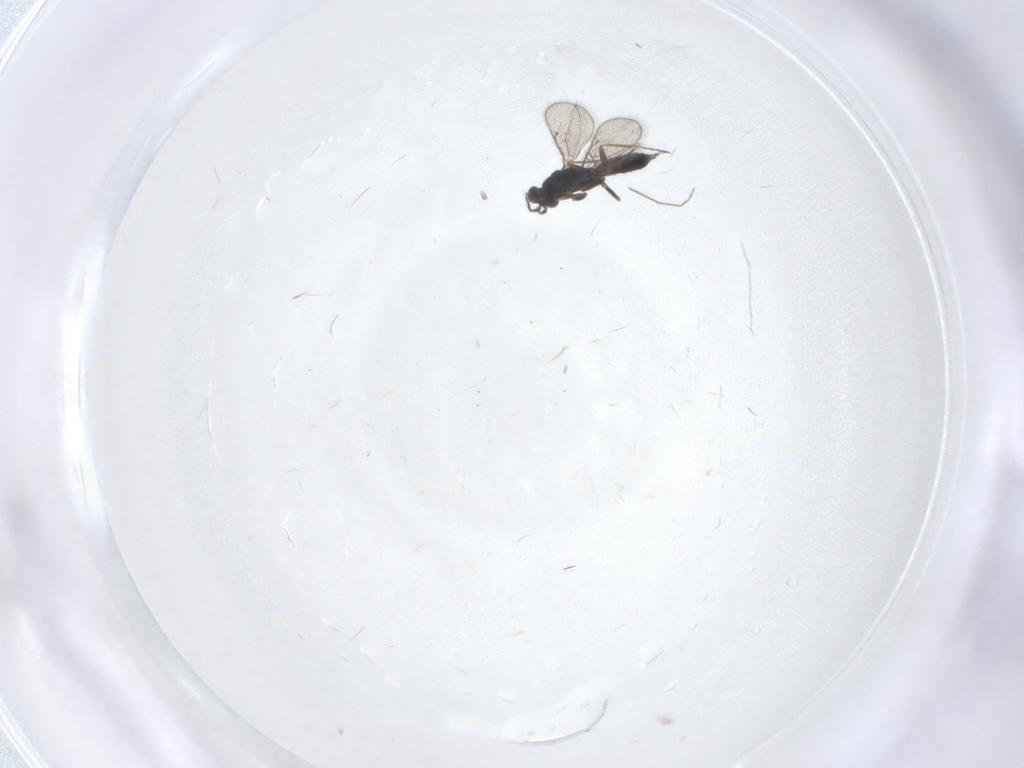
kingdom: Animalia
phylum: Arthropoda
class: Insecta
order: Hymenoptera
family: Eulophidae
